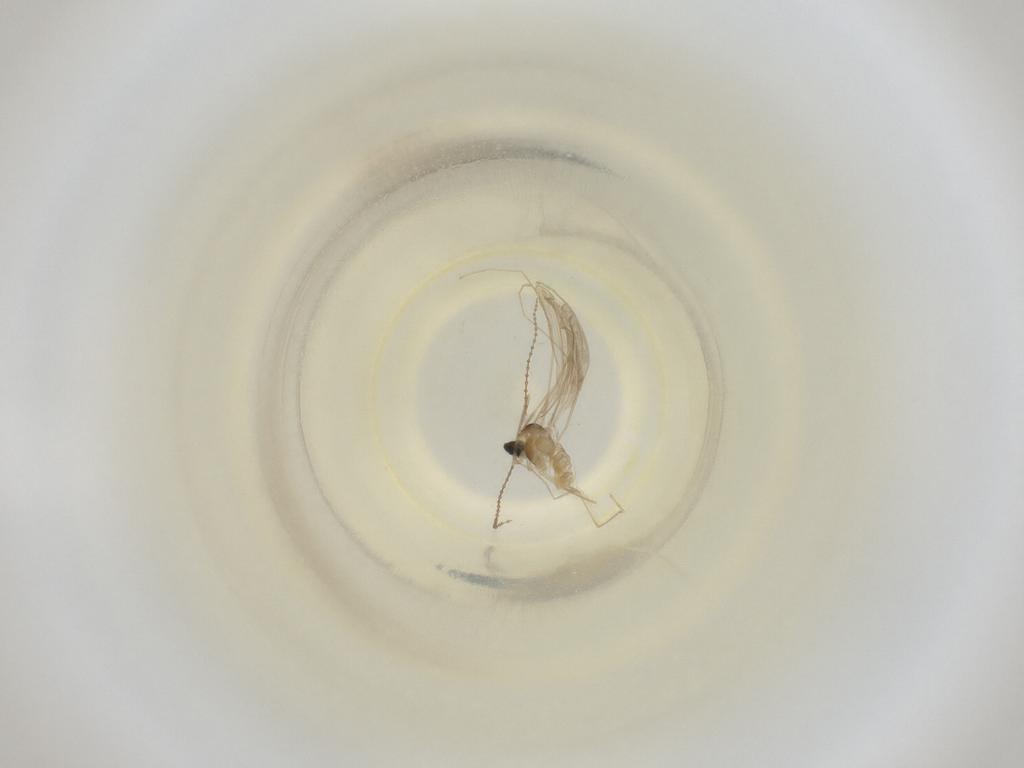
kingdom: Animalia
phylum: Arthropoda
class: Insecta
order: Diptera
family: Cecidomyiidae
